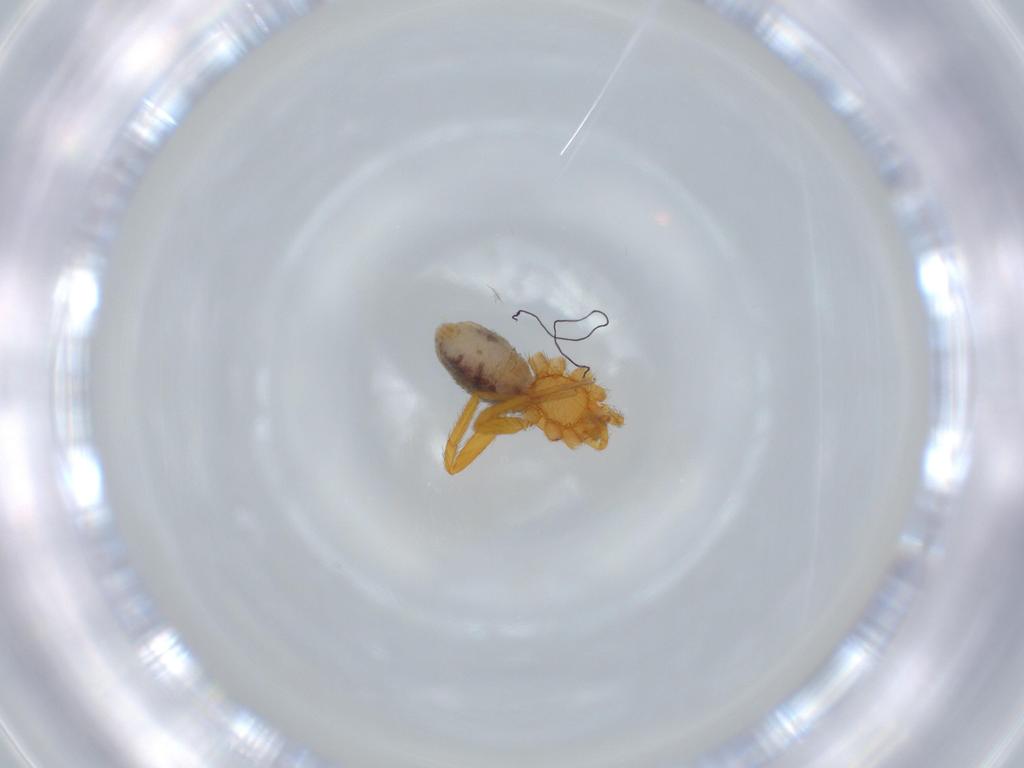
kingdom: Animalia
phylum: Arthropoda
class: Arachnida
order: Araneae
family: Oonopidae
